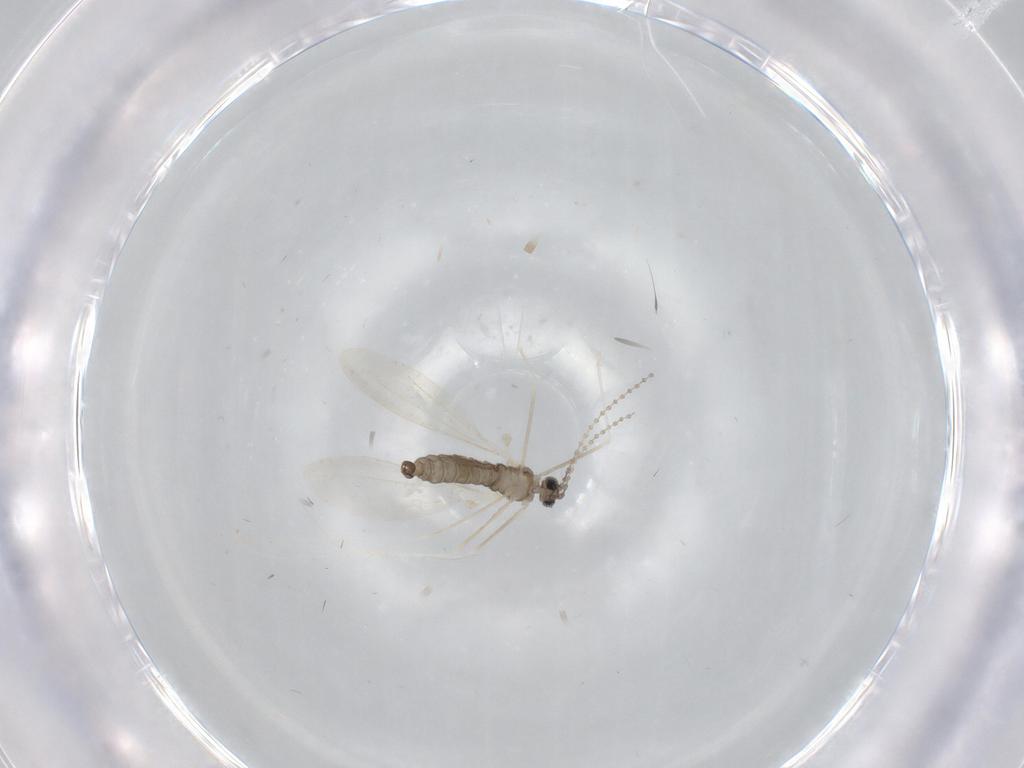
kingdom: Animalia
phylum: Arthropoda
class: Insecta
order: Diptera
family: Cecidomyiidae
